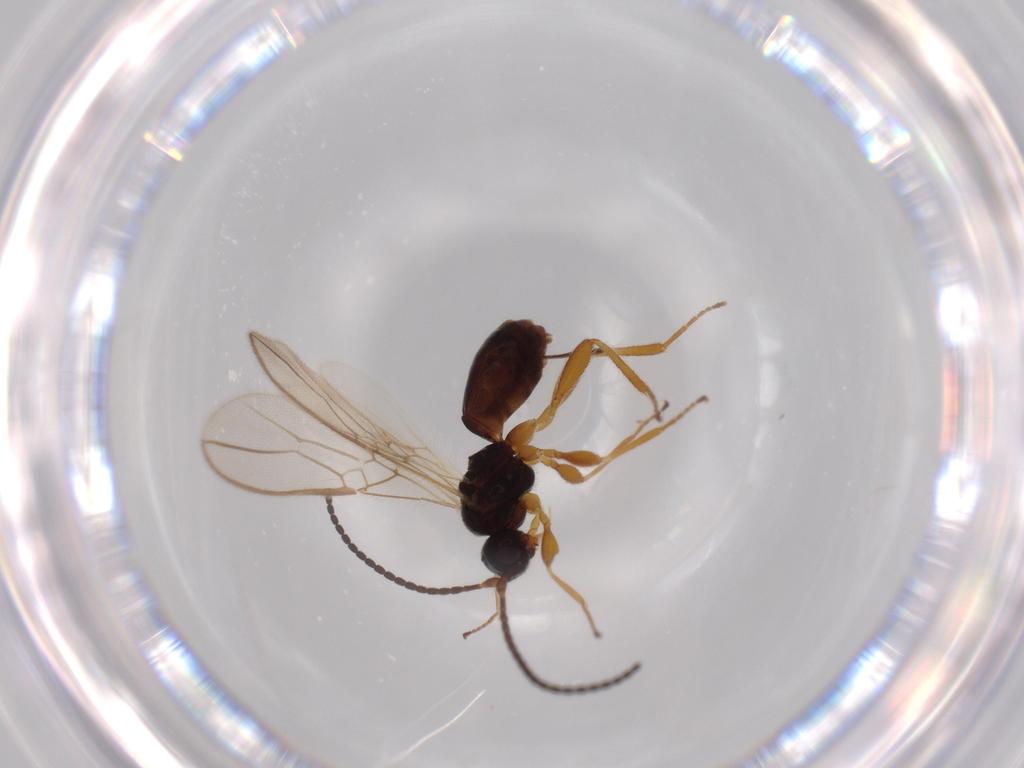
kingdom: Animalia
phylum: Arthropoda
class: Insecta
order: Hymenoptera
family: Braconidae
